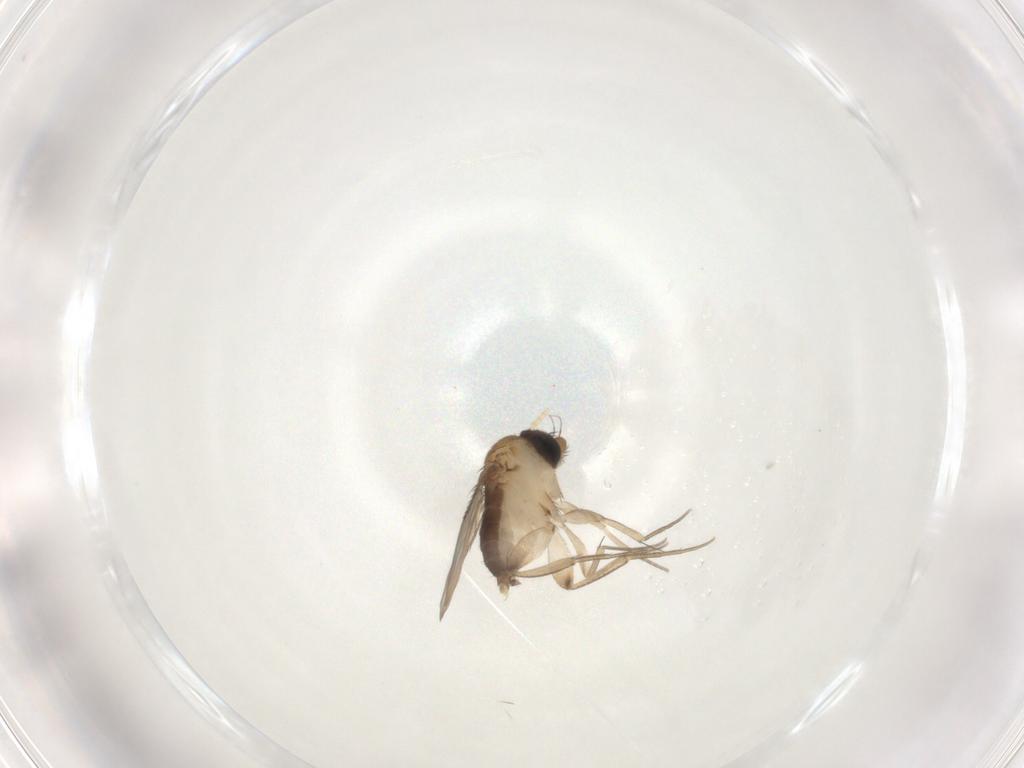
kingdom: Animalia
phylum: Arthropoda
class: Insecta
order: Diptera
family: Phoridae
